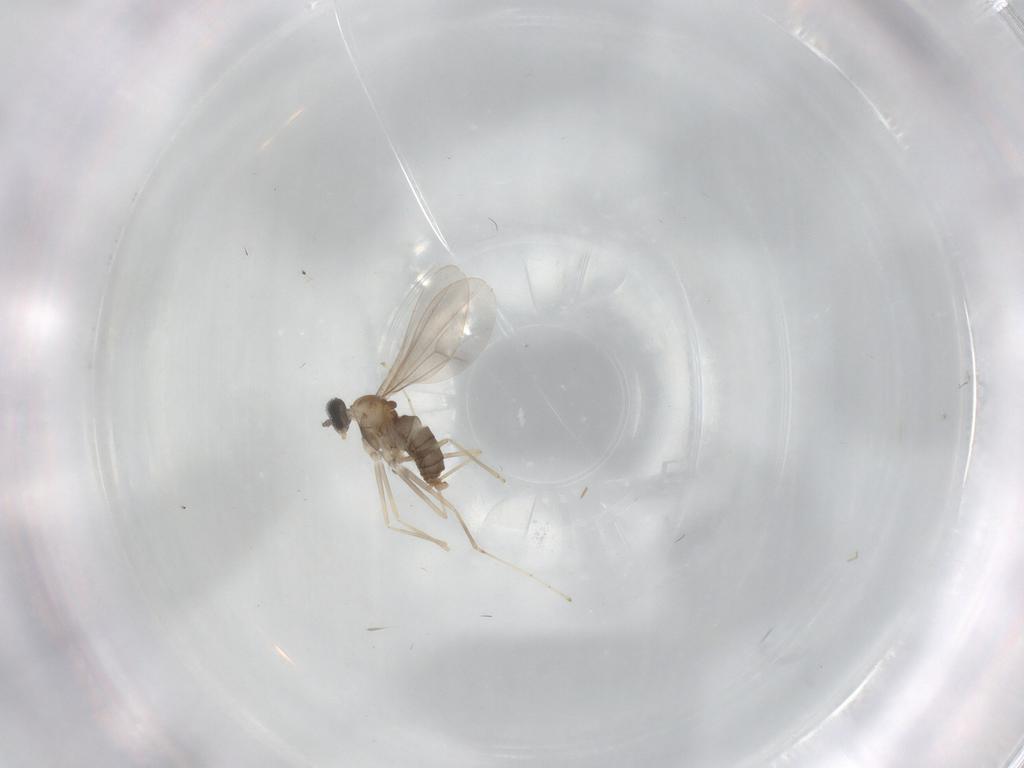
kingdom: Animalia
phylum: Arthropoda
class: Insecta
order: Diptera
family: Cecidomyiidae
